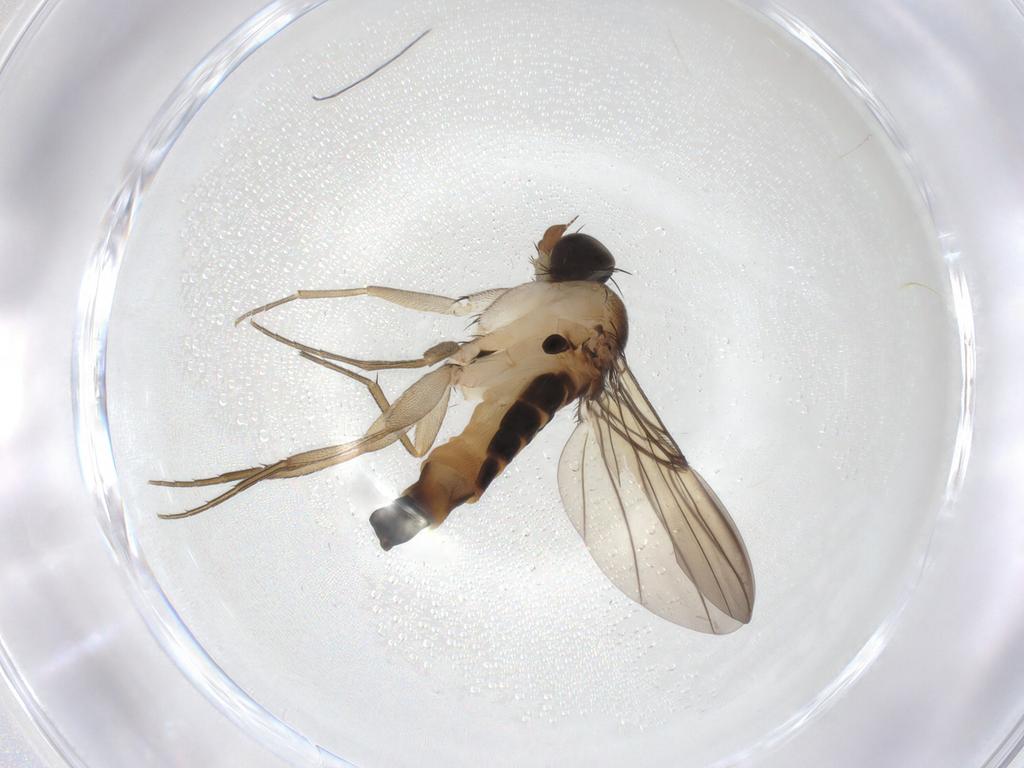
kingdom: Animalia
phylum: Arthropoda
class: Insecta
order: Diptera
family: Phoridae
